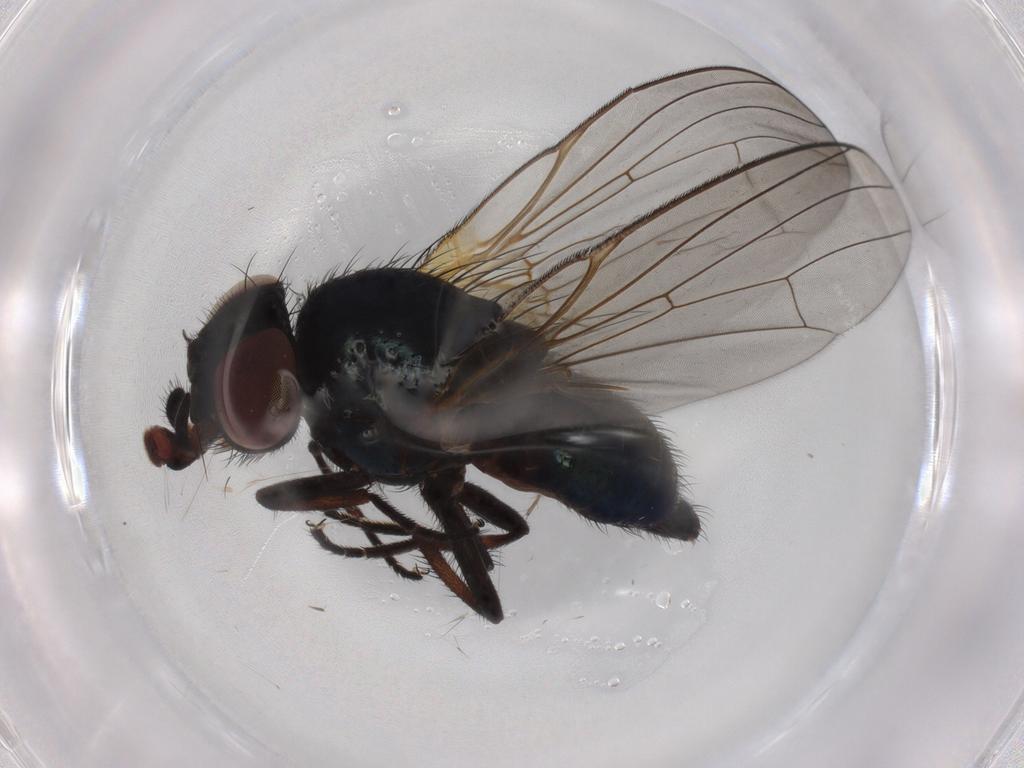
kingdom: Animalia
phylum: Arthropoda
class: Insecta
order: Diptera
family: Lonchaeidae
